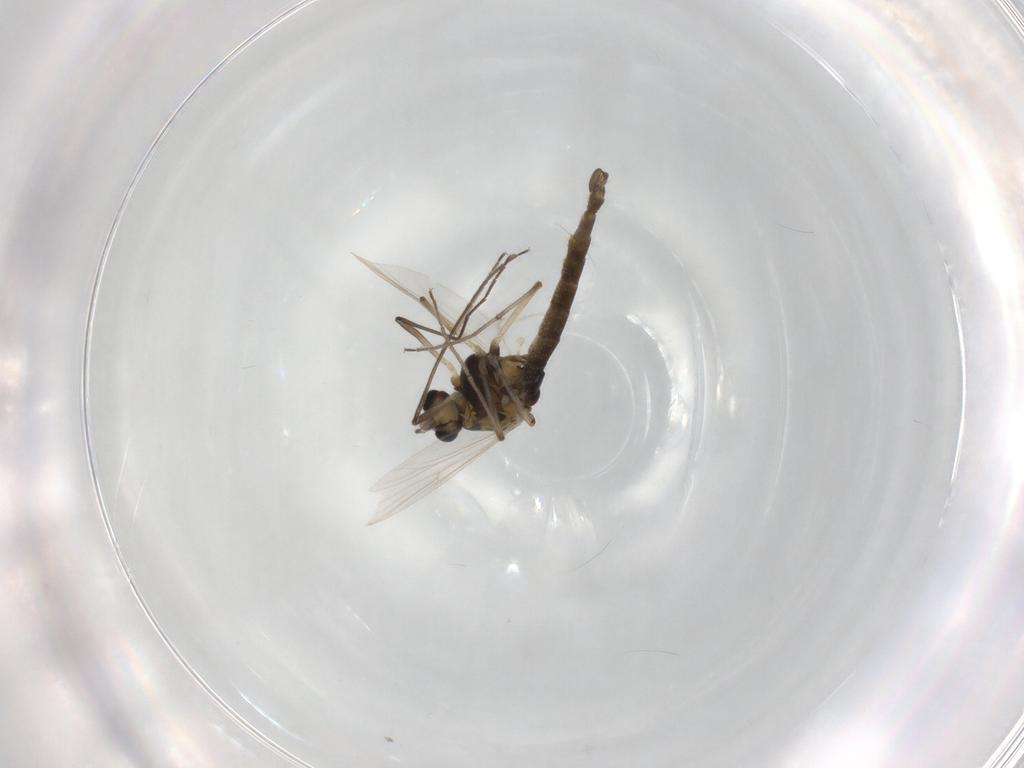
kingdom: Animalia
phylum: Arthropoda
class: Insecta
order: Diptera
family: Chironomidae
